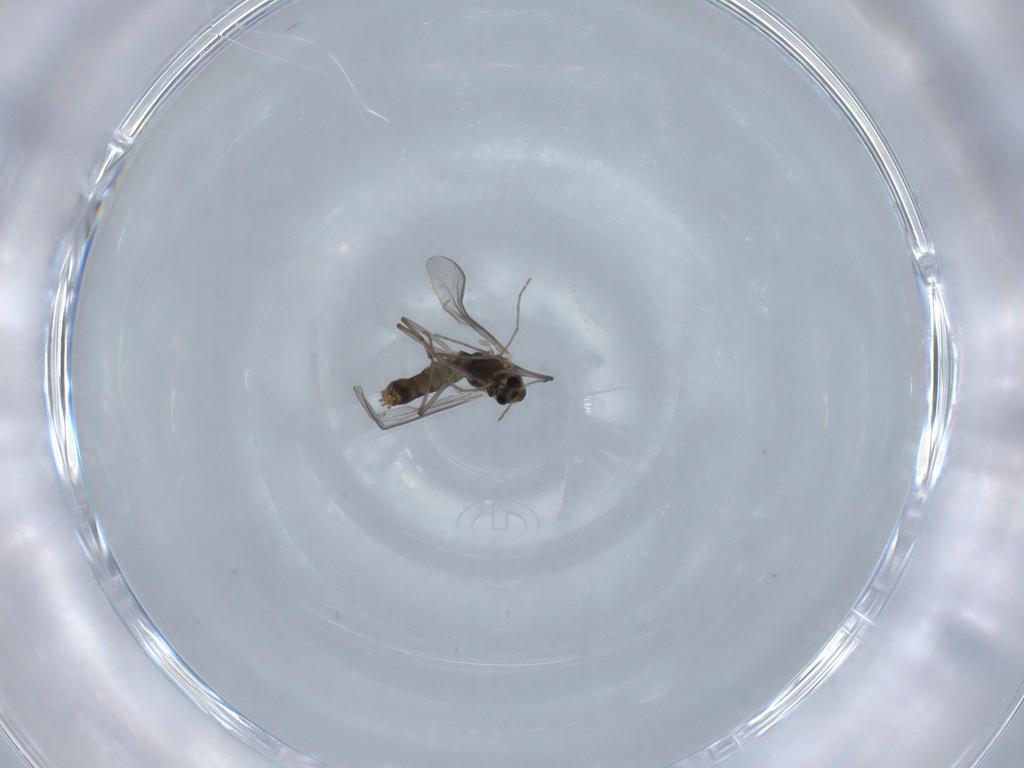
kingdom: Animalia
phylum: Arthropoda
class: Insecta
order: Diptera
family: Chironomidae
